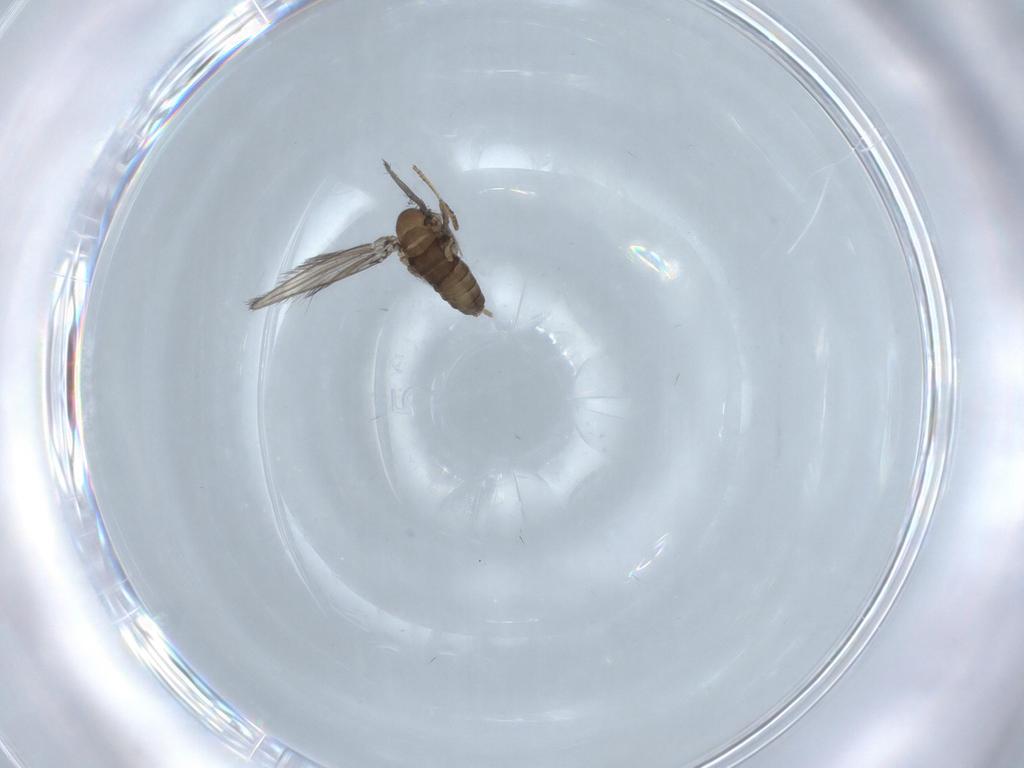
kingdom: Animalia
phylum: Arthropoda
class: Insecta
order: Diptera
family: Psychodidae
